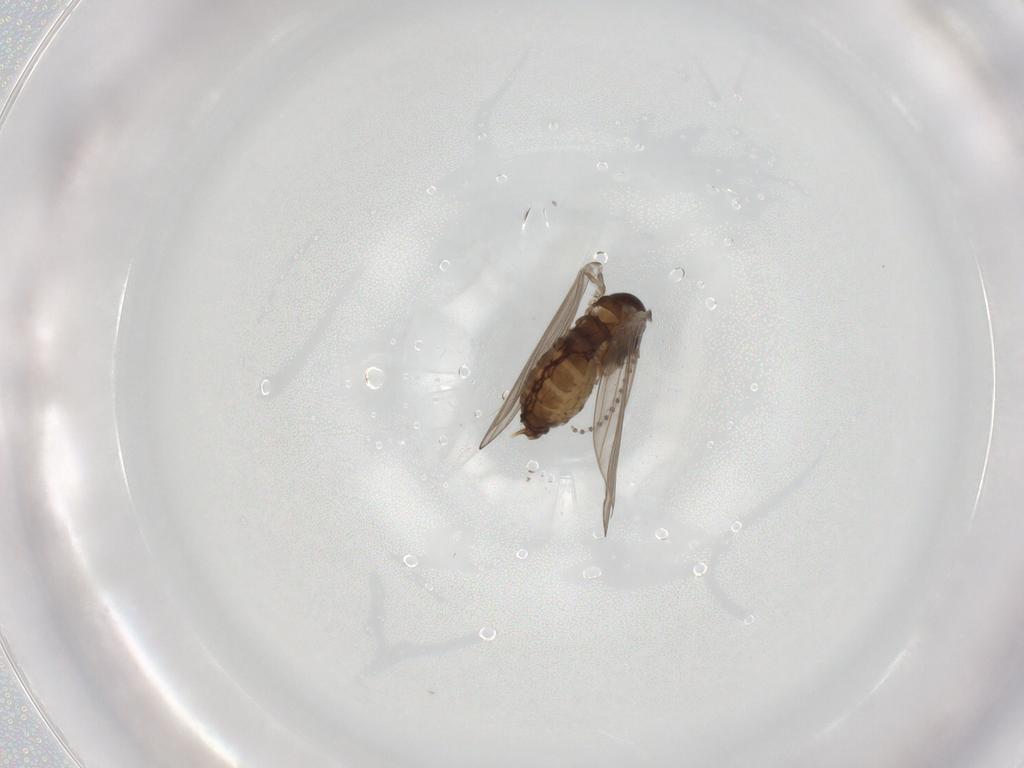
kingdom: Animalia
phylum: Arthropoda
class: Insecta
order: Diptera
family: Psychodidae
